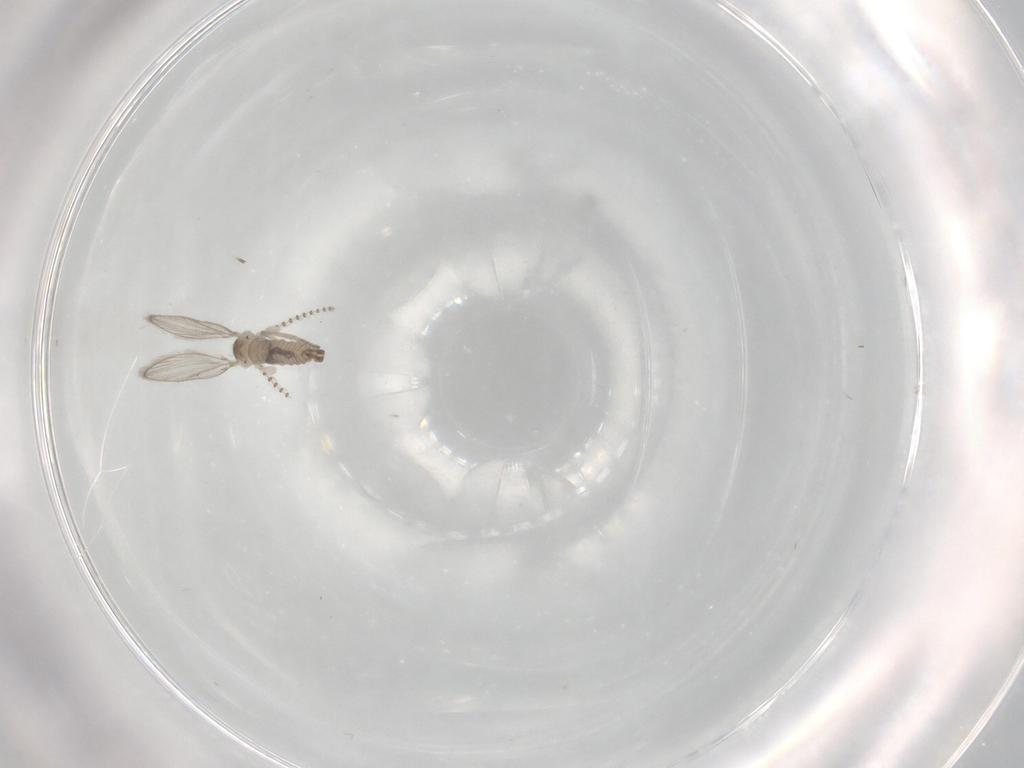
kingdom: Animalia
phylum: Arthropoda
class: Insecta
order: Diptera
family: Psychodidae
